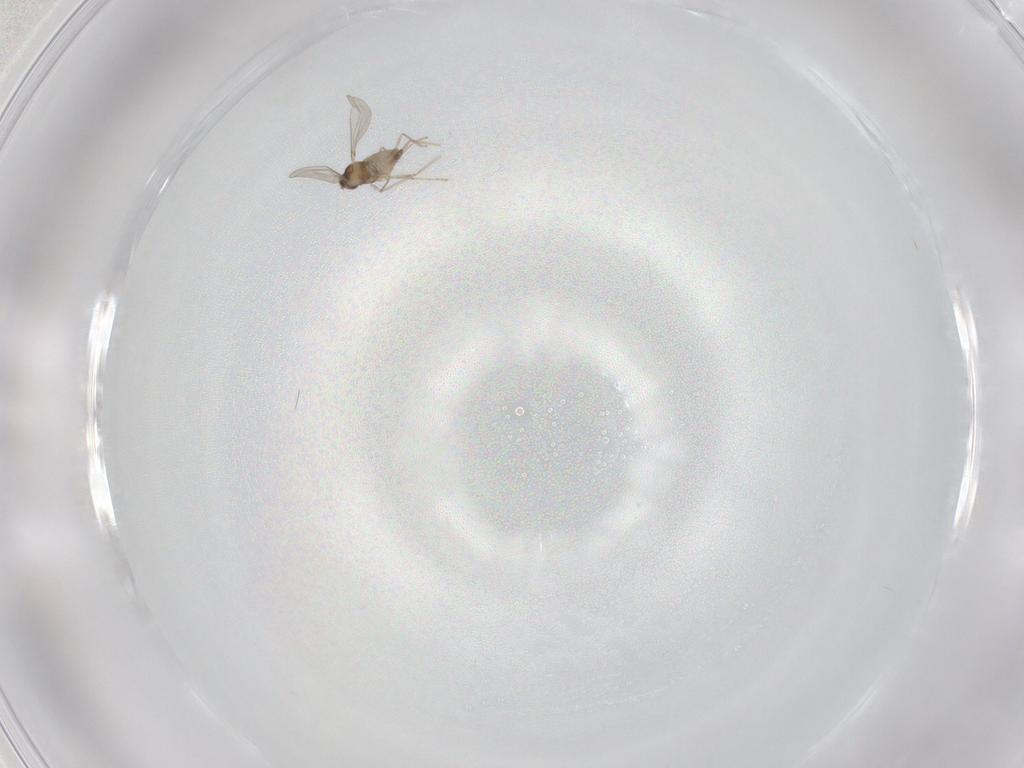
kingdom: Animalia
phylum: Arthropoda
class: Insecta
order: Diptera
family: Cecidomyiidae
